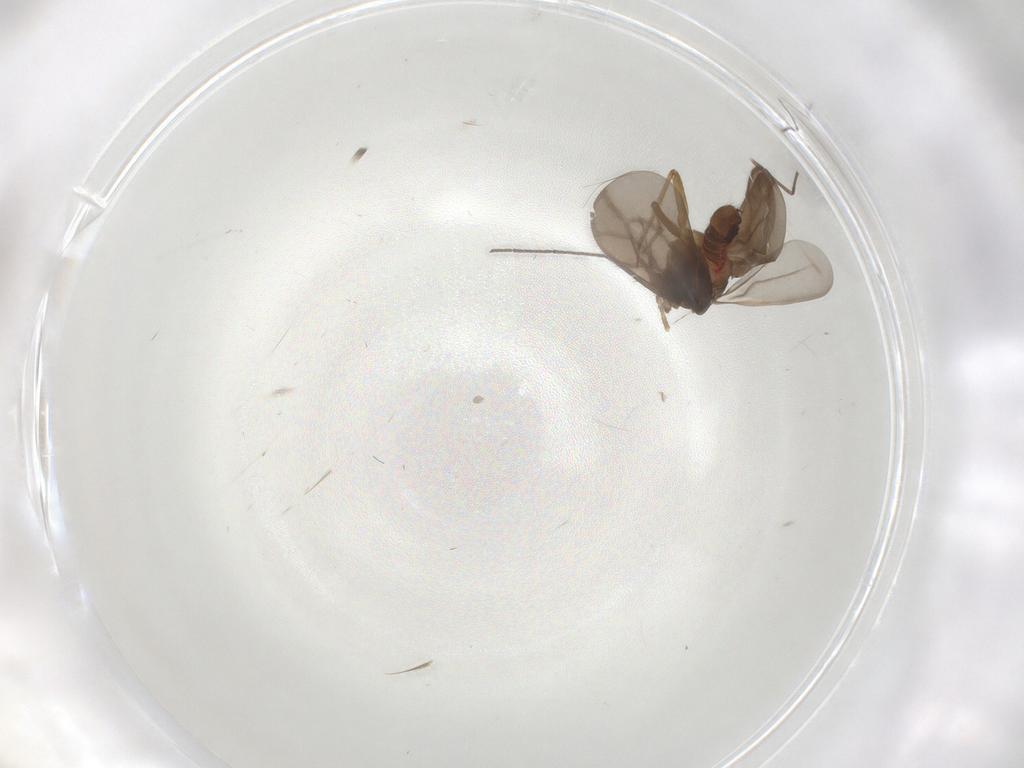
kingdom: Animalia
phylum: Arthropoda
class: Insecta
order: Hemiptera
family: Ceratocombidae
